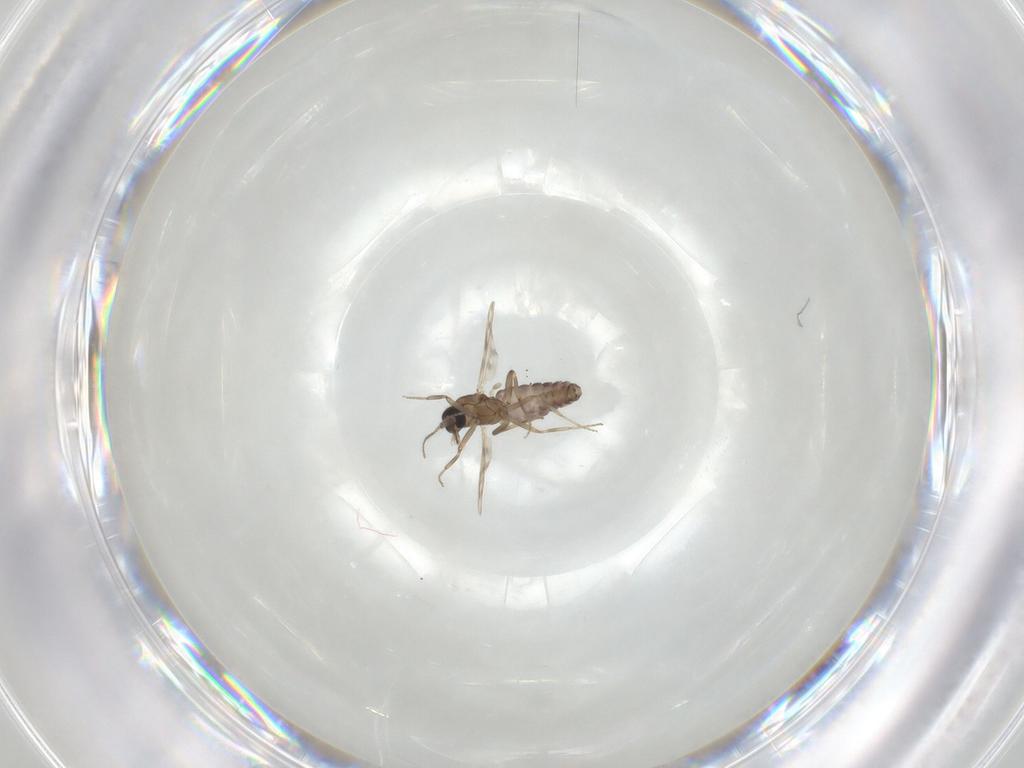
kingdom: Animalia
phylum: Arthropoda
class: Insecta
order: Diptera
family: Ceratopogonidae
